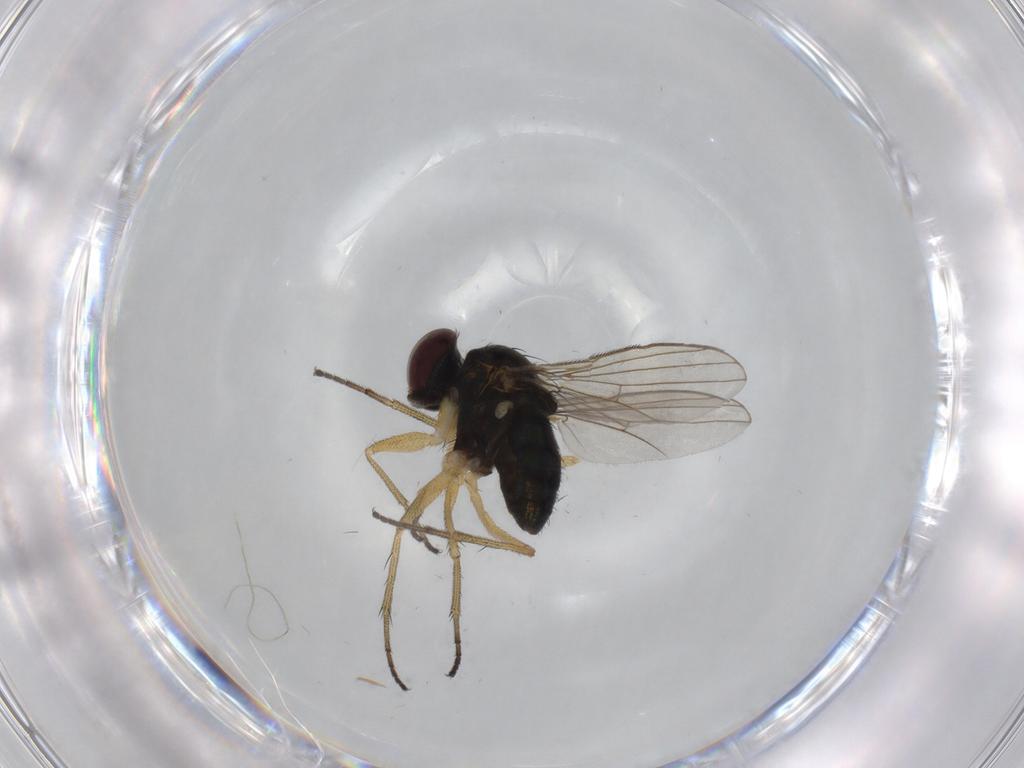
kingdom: Animalia
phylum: Arthropoda
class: Insecta
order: Diptera
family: Dolichopodidae
